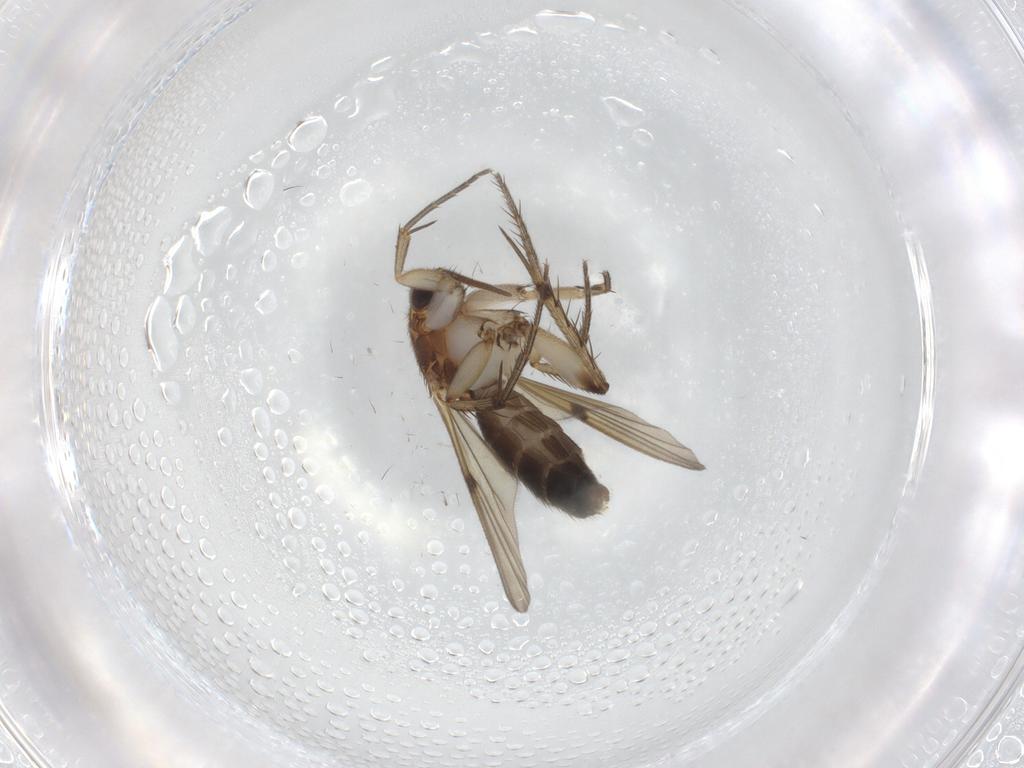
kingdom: Animalia
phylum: Arthropoda
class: Insecta
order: Diptera
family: Mycetophilidae
